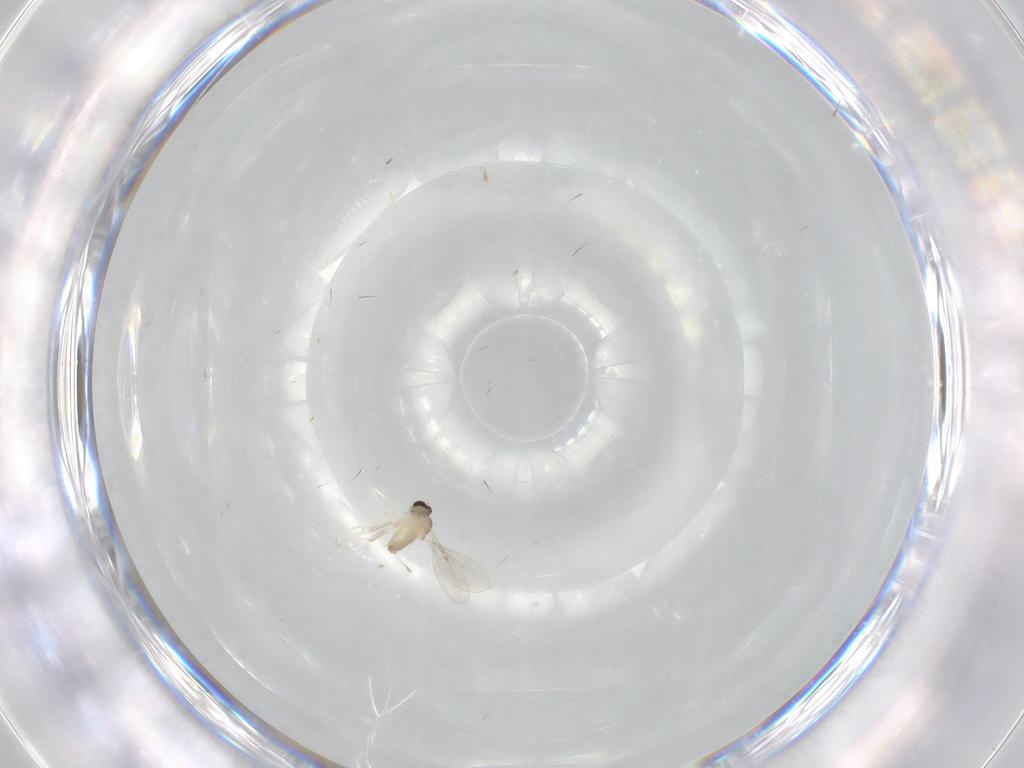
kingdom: Animalia
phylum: Arthropoda
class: Insecta
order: Diptera
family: Cecidomyiidae
